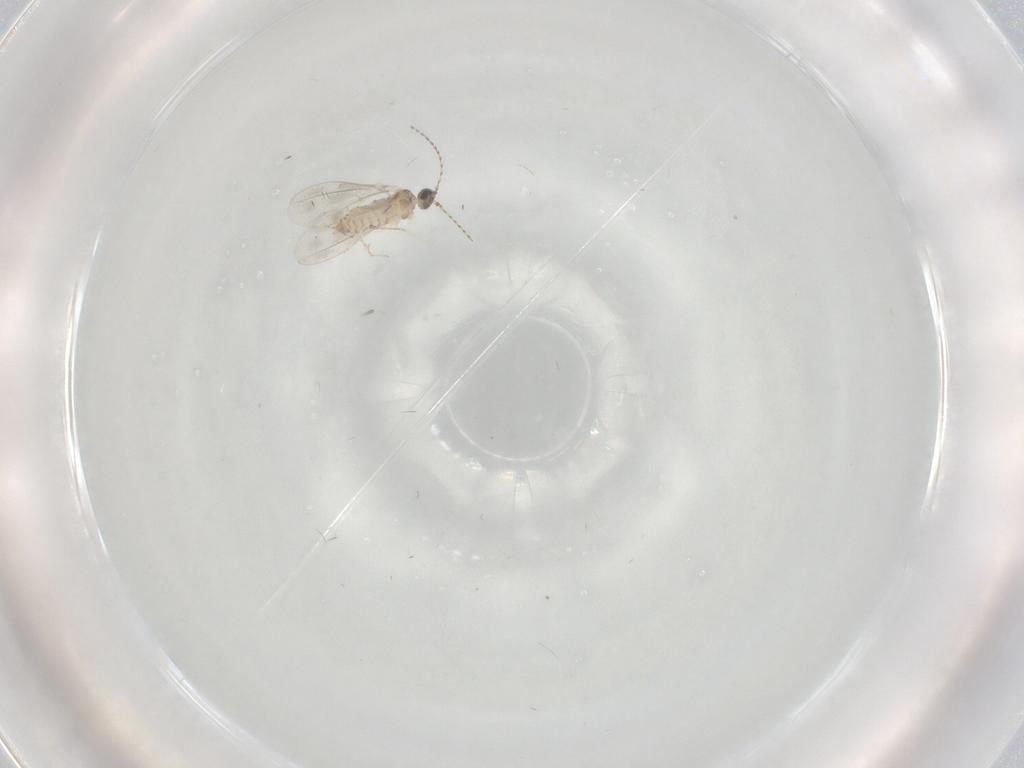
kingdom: Animalia
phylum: Arthropoda
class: Insecta
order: Diptera
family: Cecidomyiidae
